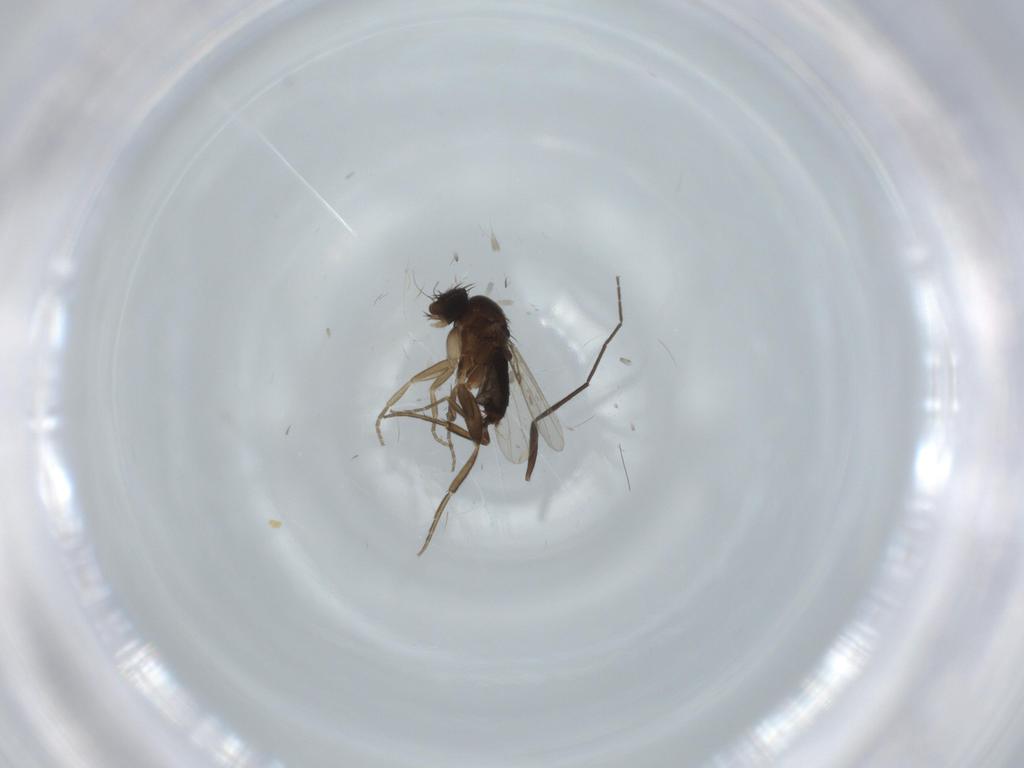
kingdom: Animalia
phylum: Arthropoda
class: Insecta
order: Diptera
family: Phoridae
